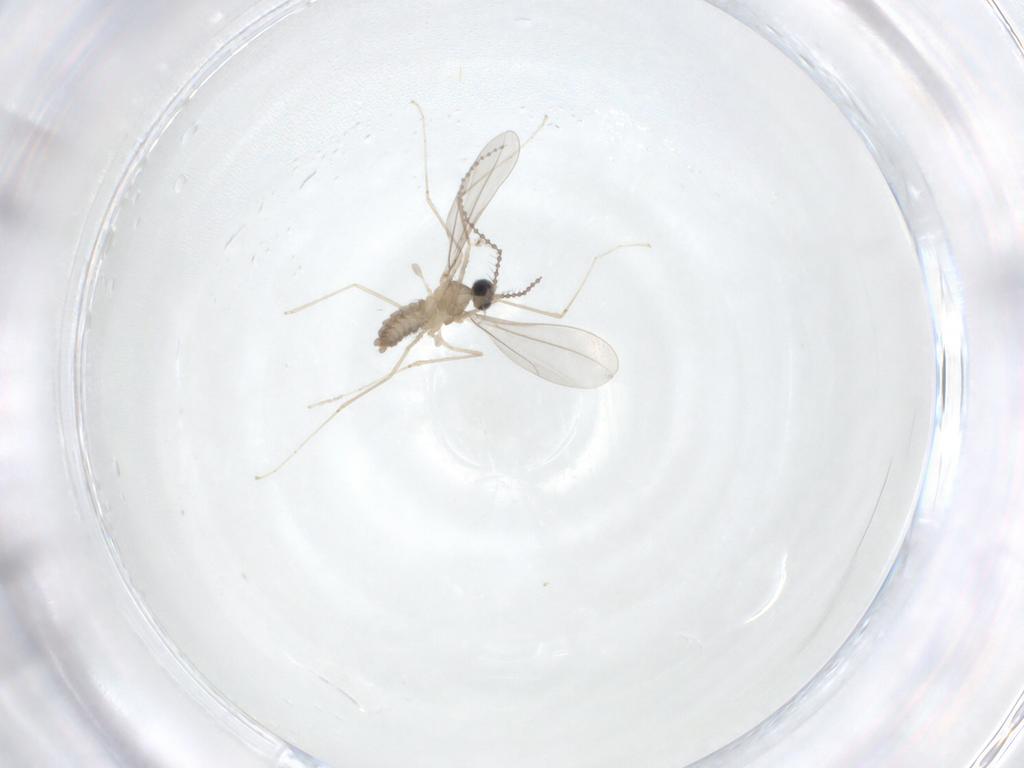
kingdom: Animalia
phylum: Arthropoda
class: Insecta
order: Diptera
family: Cecidomyiidae
